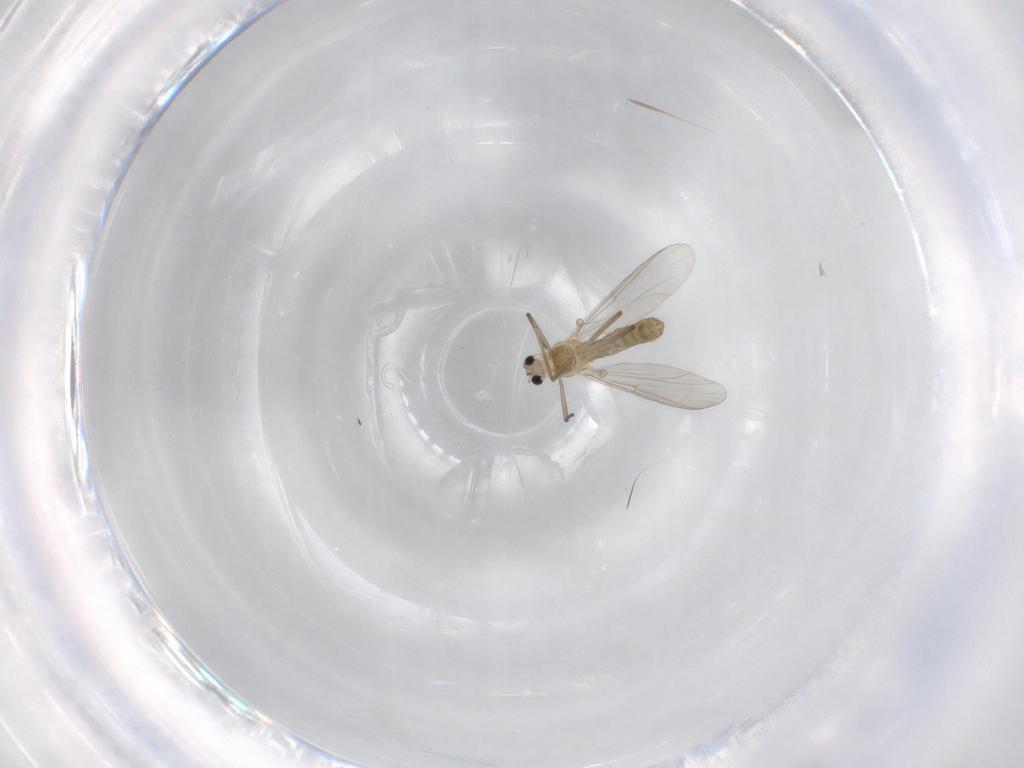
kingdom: Animalia
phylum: Arthropoda
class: Insecta
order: Diptera
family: Chironomidae
